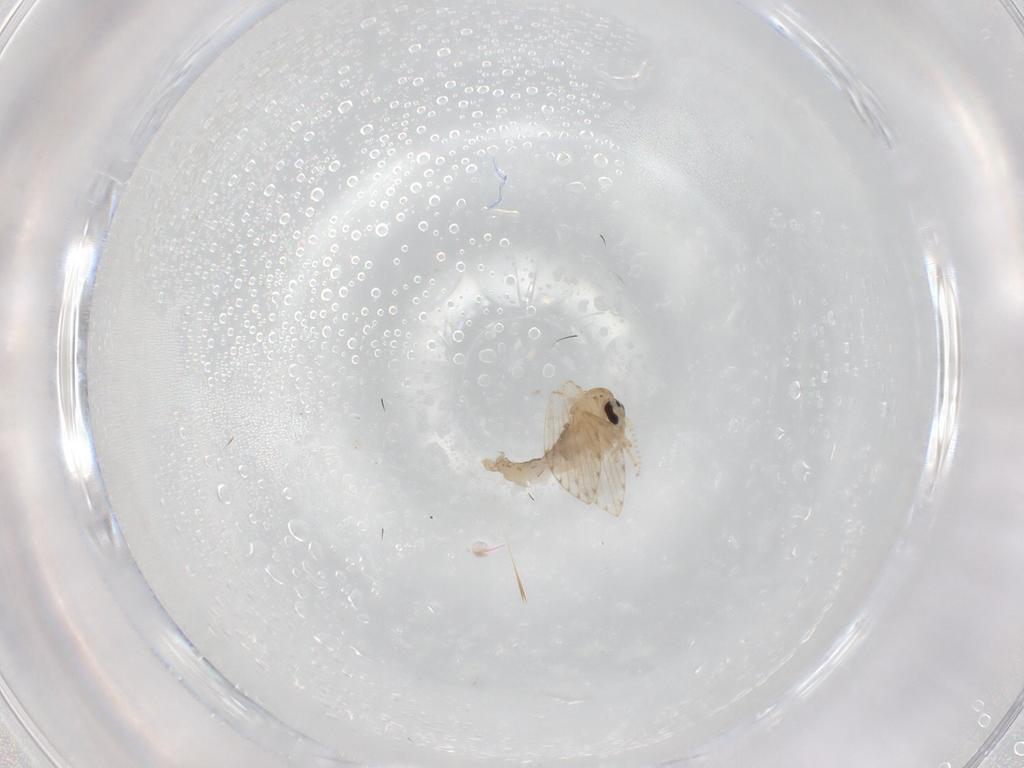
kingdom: Animalia
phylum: Arthropoda
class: Insecta
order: Diptera
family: Psychodidae
